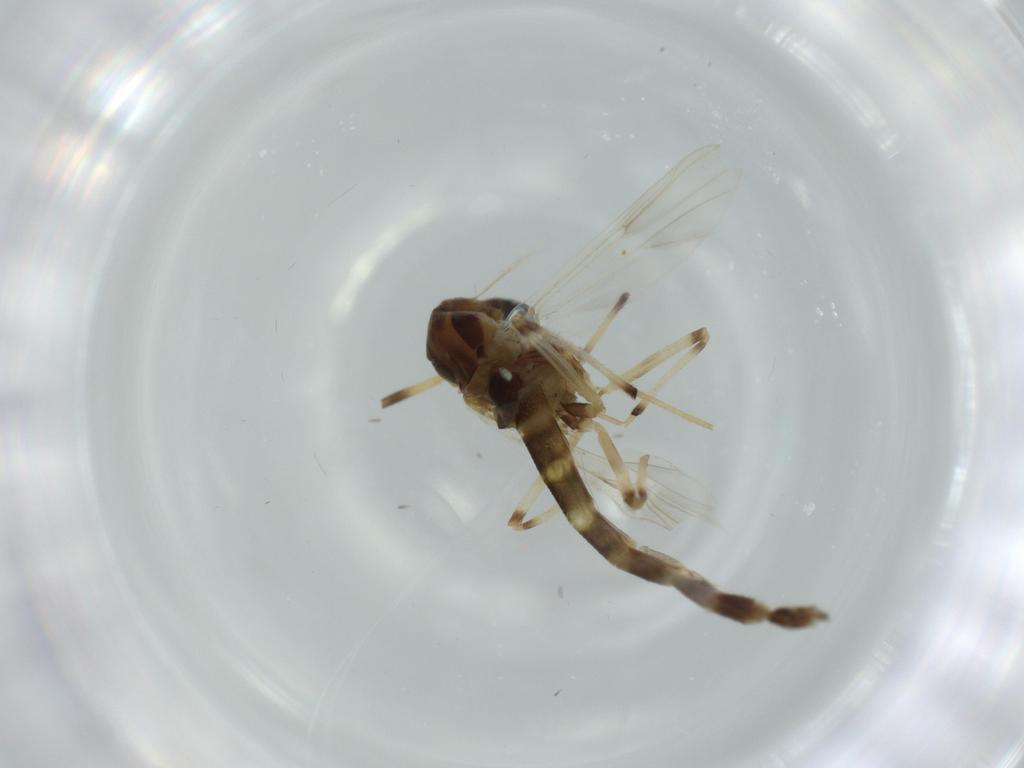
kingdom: Animalia
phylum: Arthropoda
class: Insecta
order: Diptera
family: Chironomidae
